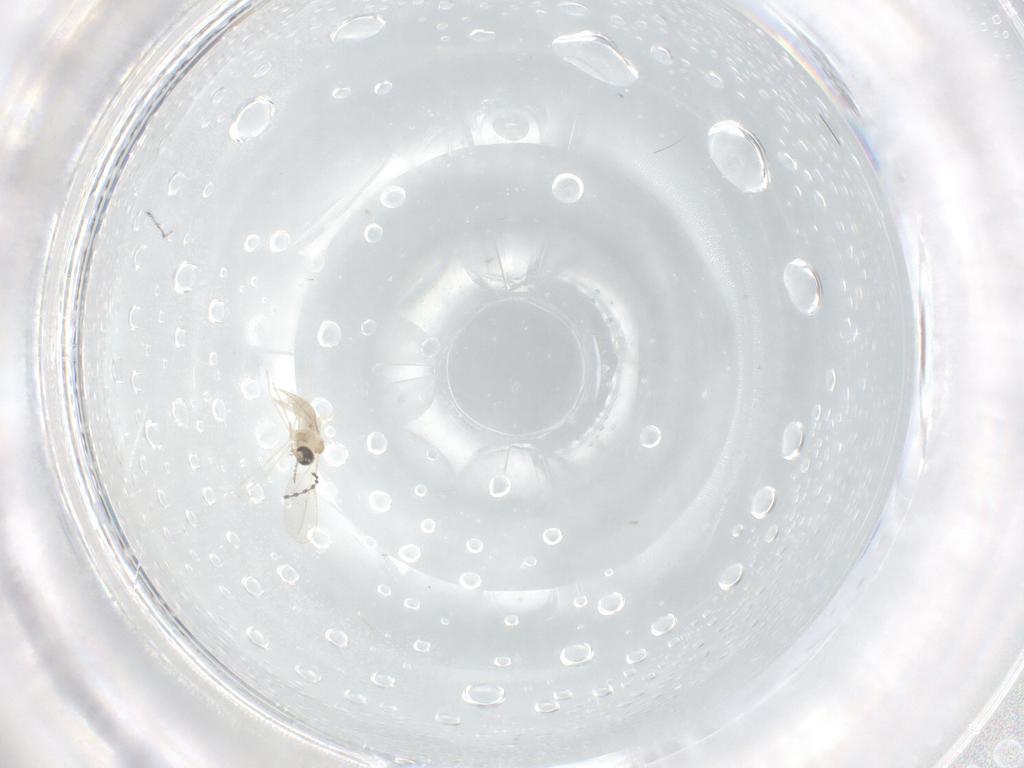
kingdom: Animalia
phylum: Arthropoda
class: Insecta
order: Diptera
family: Cecidomyiidae
